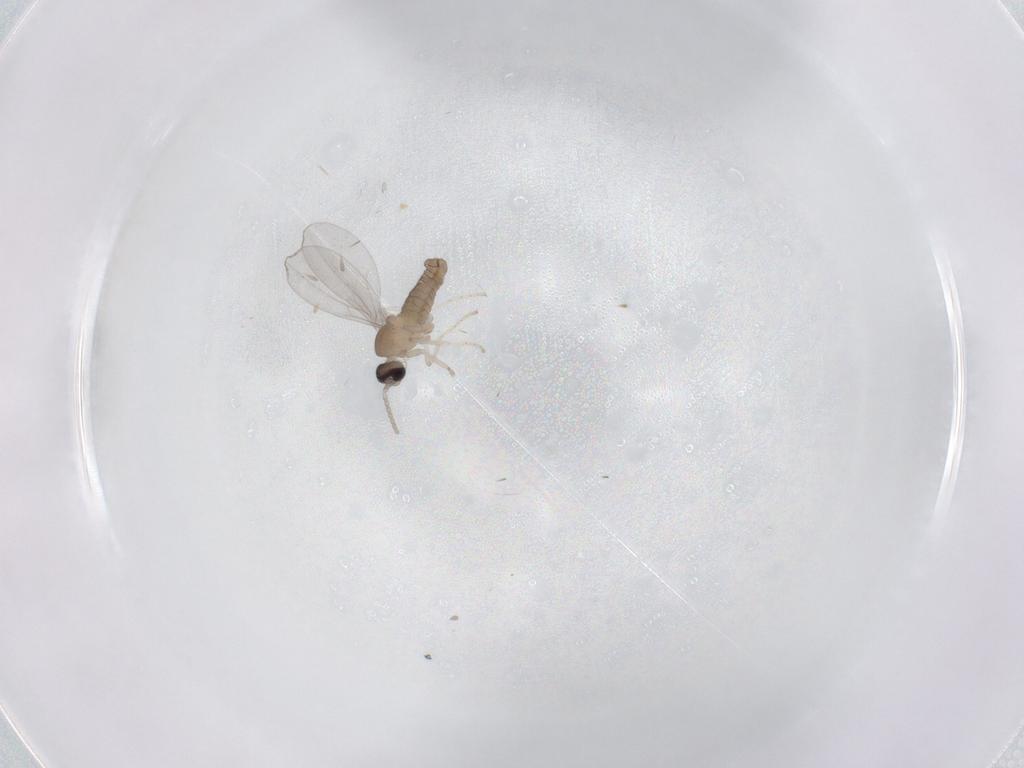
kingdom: Animalia
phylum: Arthropoda
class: Insecta
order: Diptera
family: Cecidomyiidae
